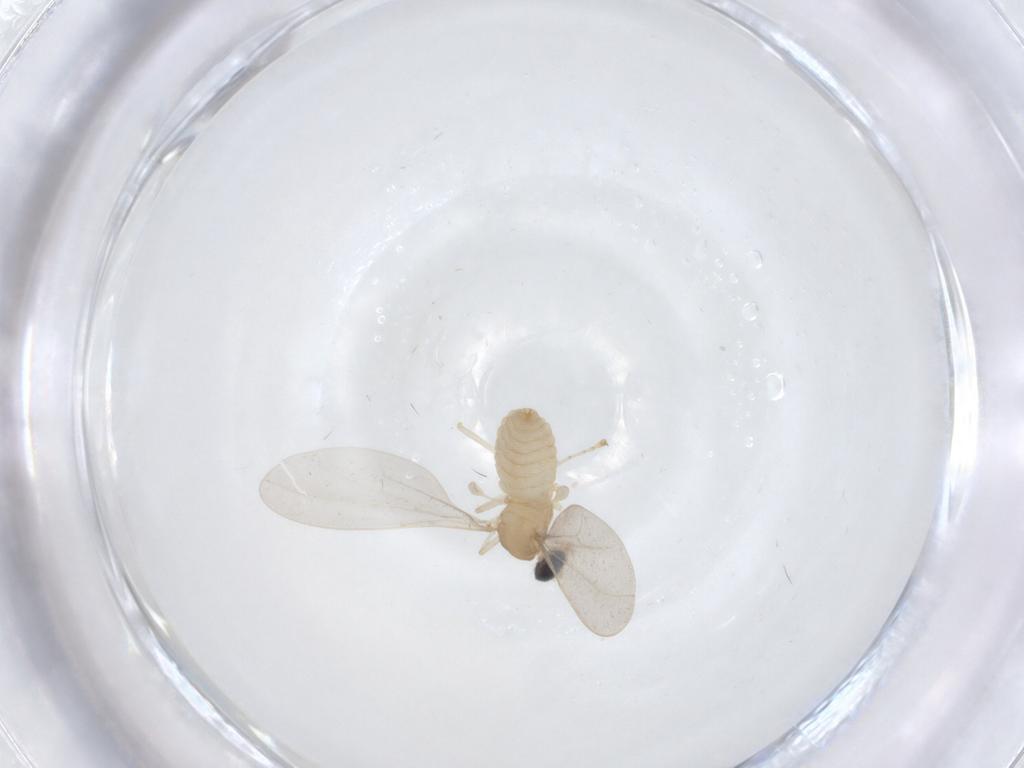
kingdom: Animalia
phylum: Arthropoda
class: Insecta
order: Diptera
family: Cecidomyiidae
